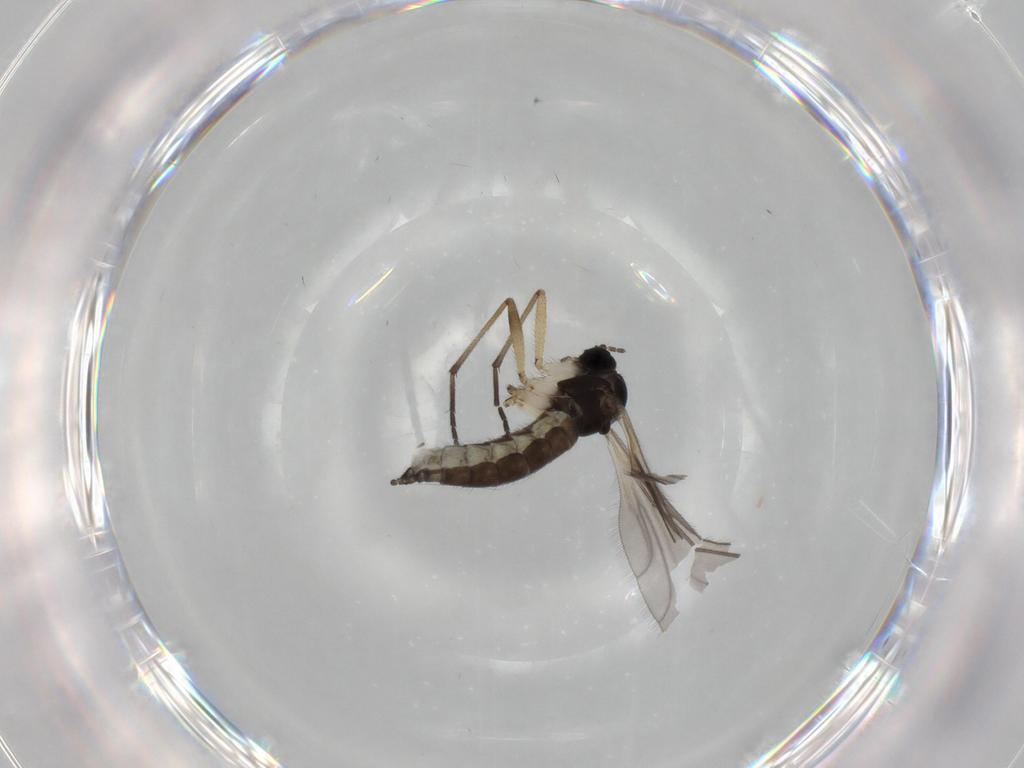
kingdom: Animalia
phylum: Arthropoda
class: Insecta
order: Diptera
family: Sciaridae
